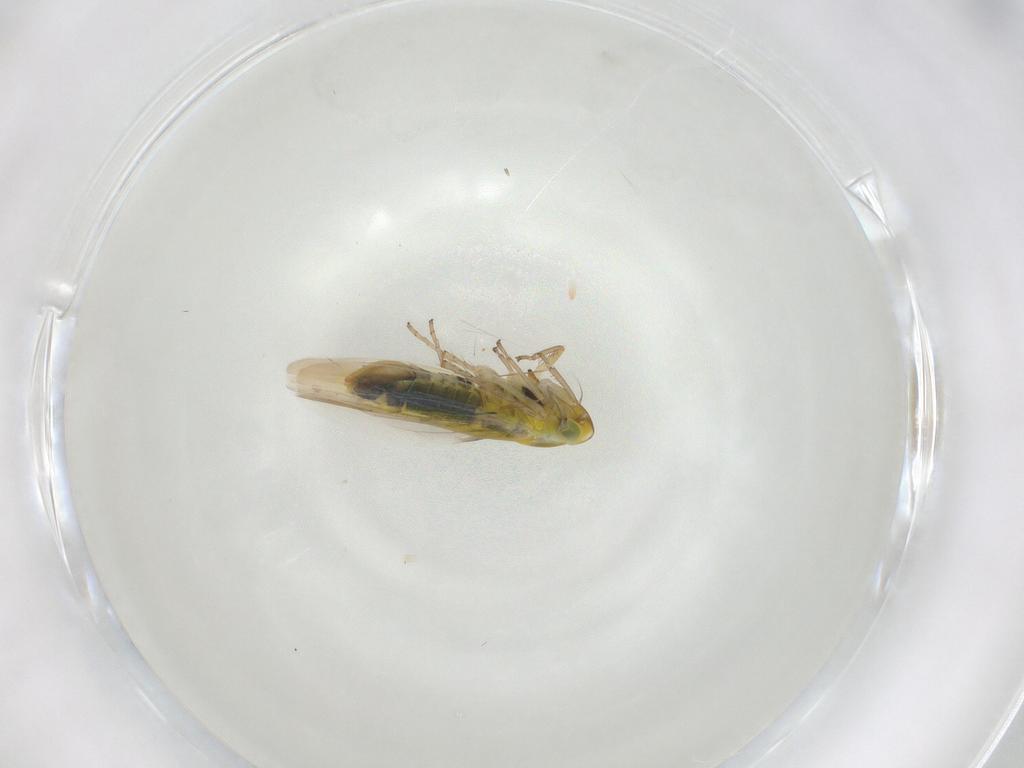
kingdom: Animalia
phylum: Arthropoda
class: Insecta
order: Hemiptera
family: Cicadellidae
